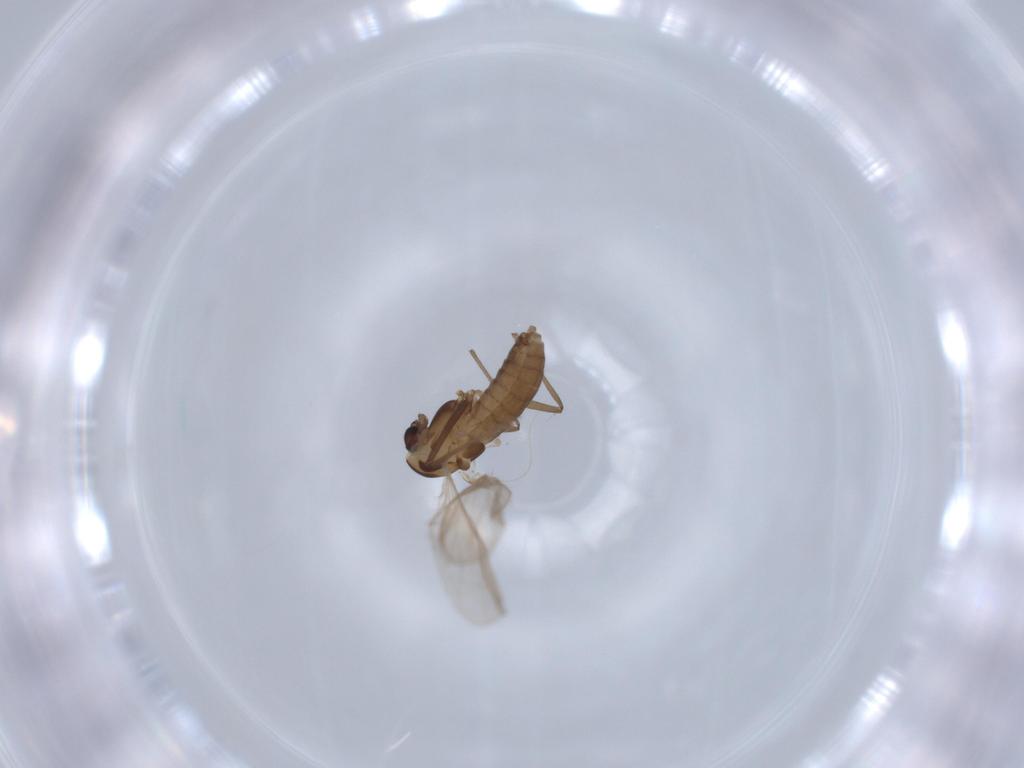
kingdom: Animalia
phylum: Arthropoda
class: Insecta
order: Diptera
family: Chironomidae
